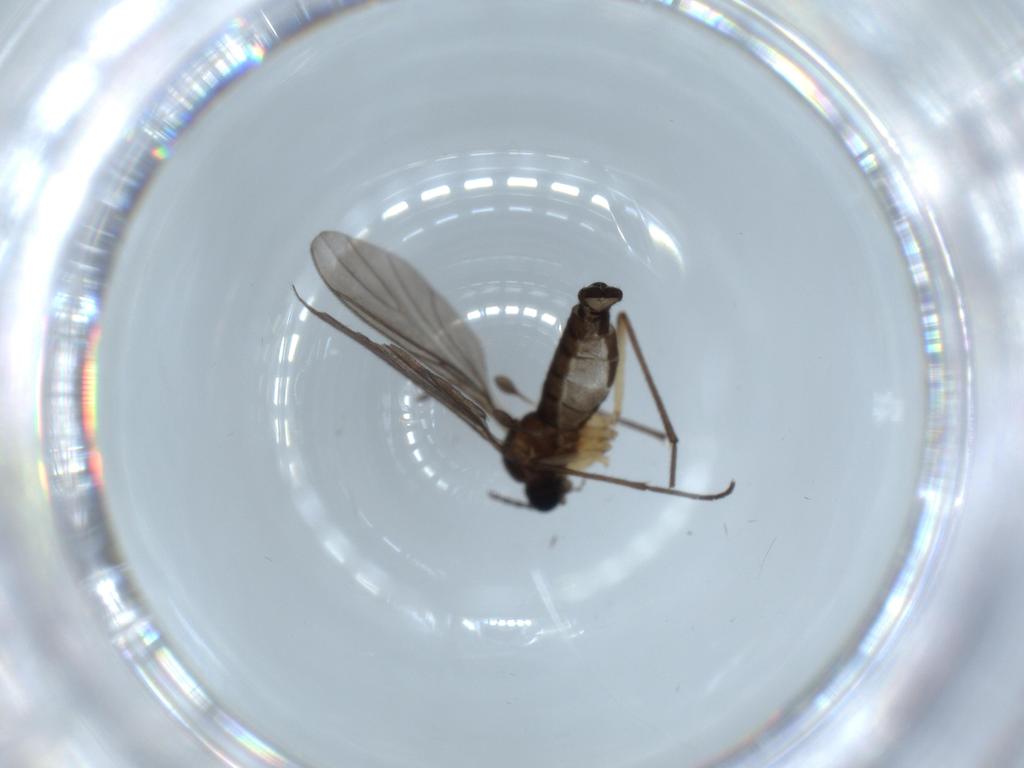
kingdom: Animalia
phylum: Arthropoda
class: Insecta
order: Diptera
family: Sciaridae
